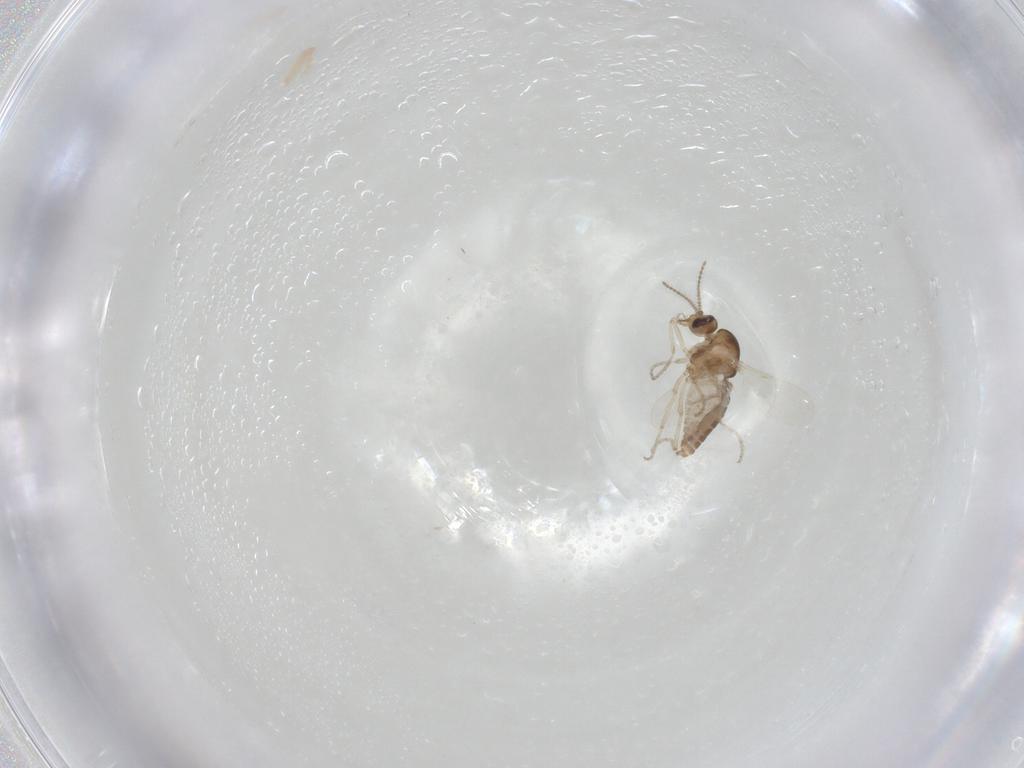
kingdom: Animalia
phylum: Arthropoda
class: Insecta
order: Diptera
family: Ceratopogonidae
